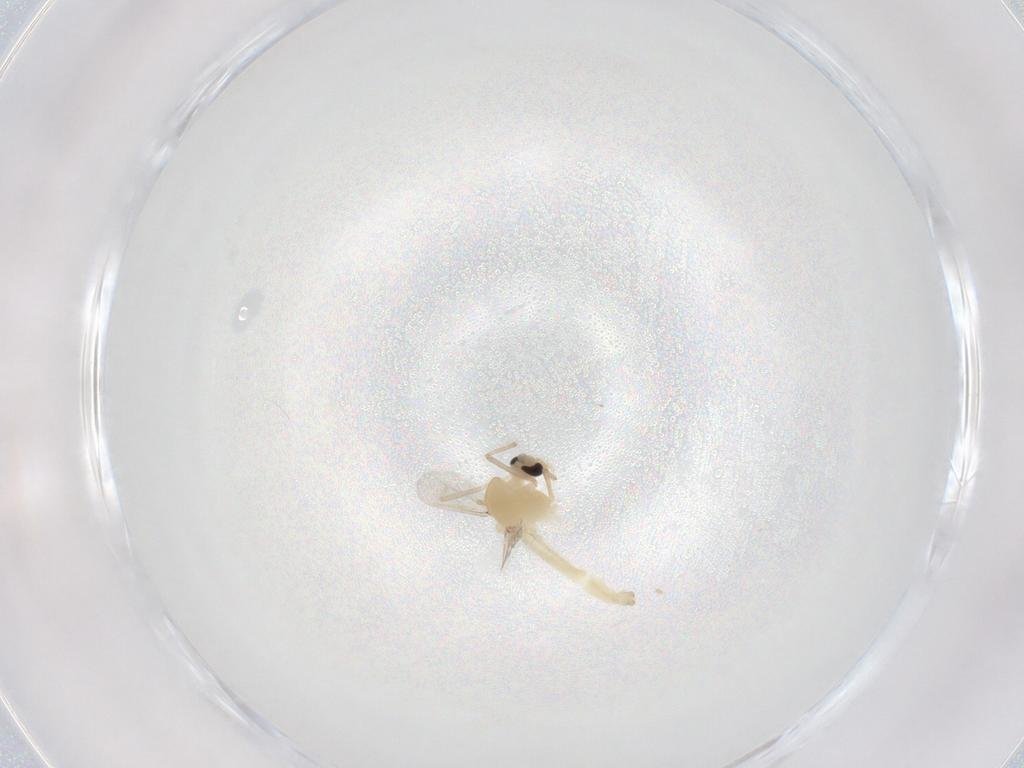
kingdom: Animalia
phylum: Arthropoda
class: Insecta
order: Diptera
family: Chironomidae
